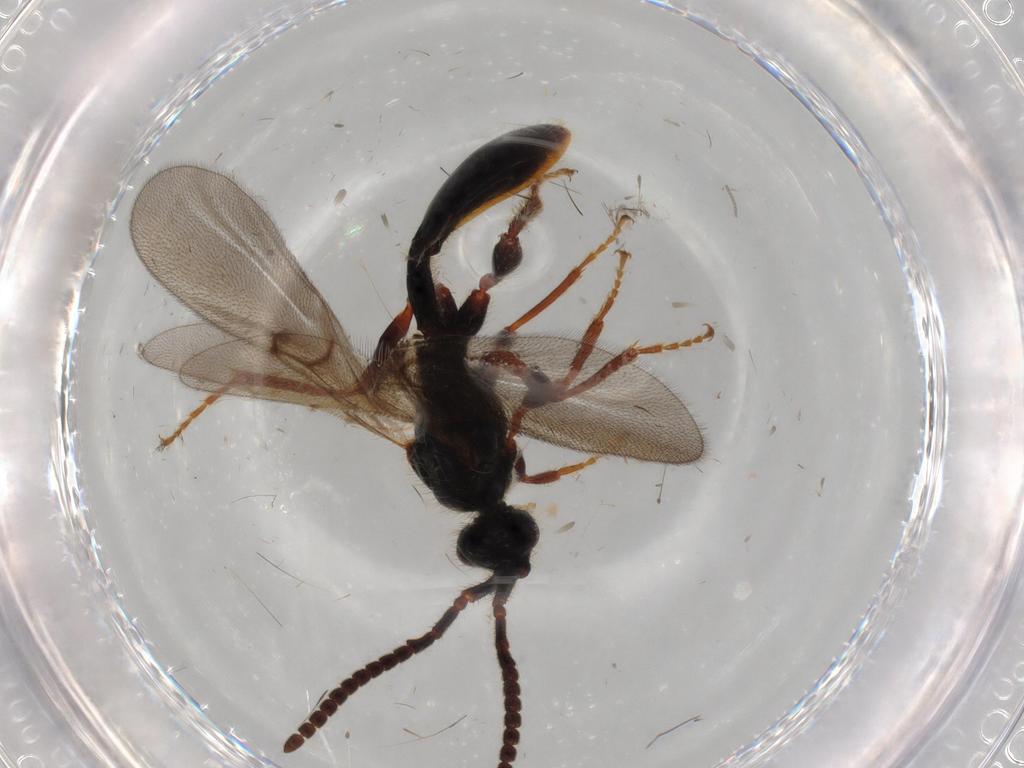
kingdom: Animalia
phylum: Arthropoda
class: Insecta
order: Hymenoptera
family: Diapriidae
